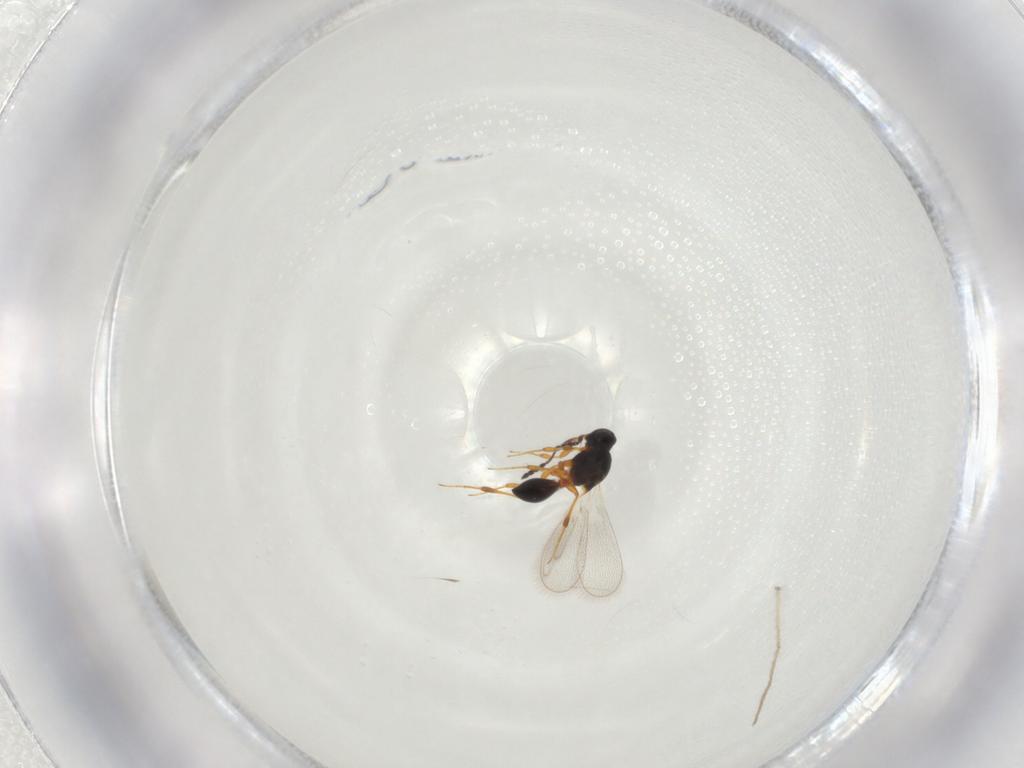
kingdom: Animalia
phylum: Arthropoda
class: Insecta
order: Hymenoptera
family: Platygastridae
